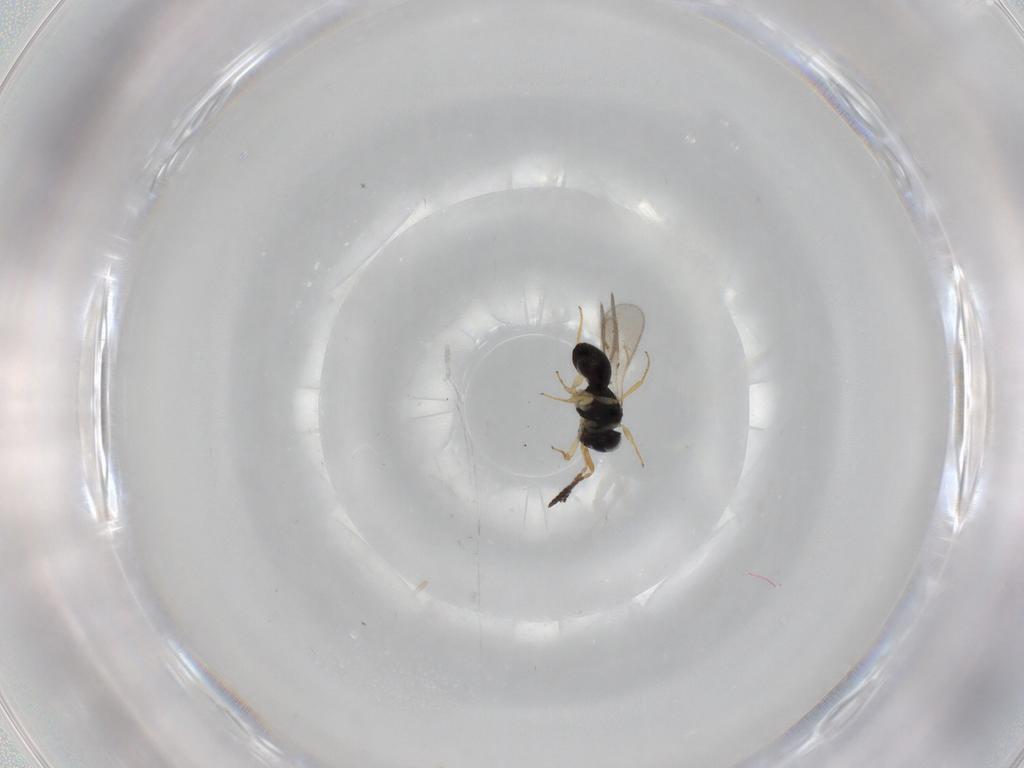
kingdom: Animalia
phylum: Arthropoda
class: Insecta
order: Hymenoptera
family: Scelionidae
